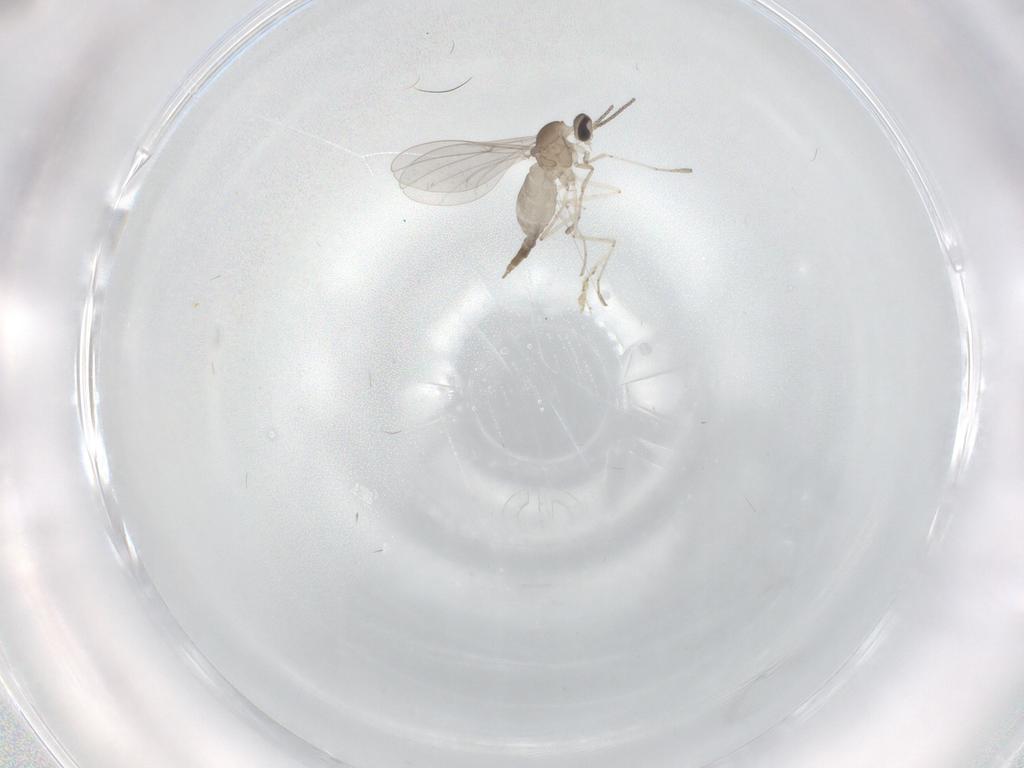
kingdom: Animalia
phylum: Arthropoda
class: Insecta
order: Diptera
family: Cecidomyiidae
